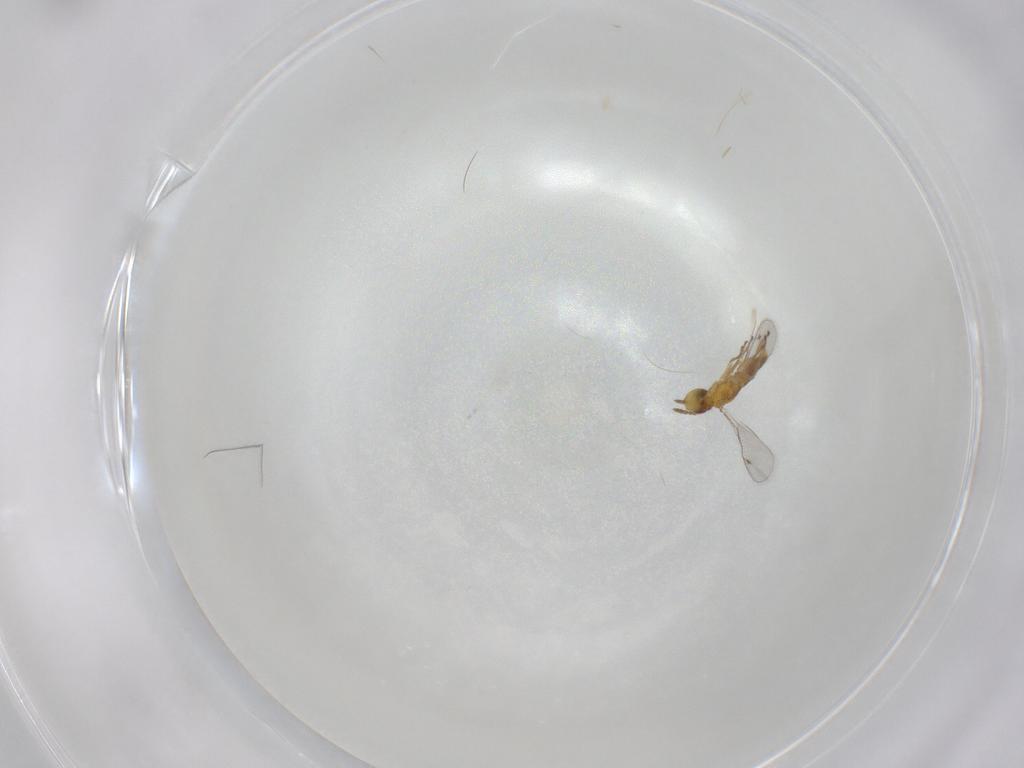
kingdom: Animalia
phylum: Arthropoda
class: Insecta
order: Hymenoptera
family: Eulophidae
